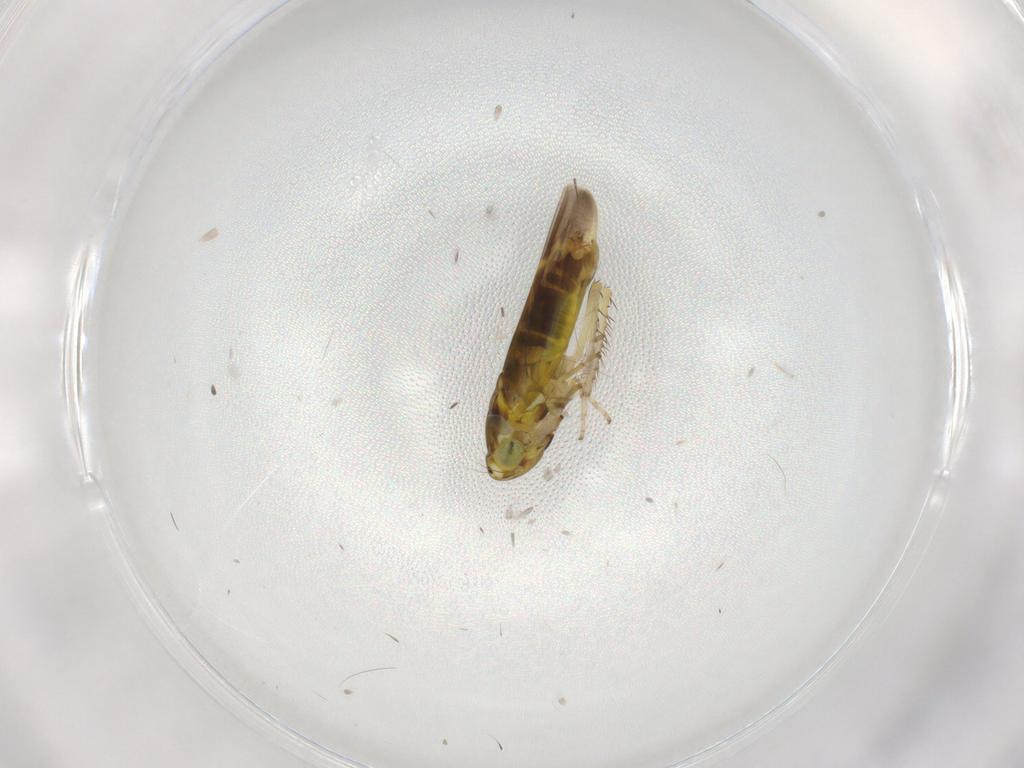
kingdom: Animalia
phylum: Arthropoda
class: Insecta
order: Hemiptera
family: Cicadellidae
